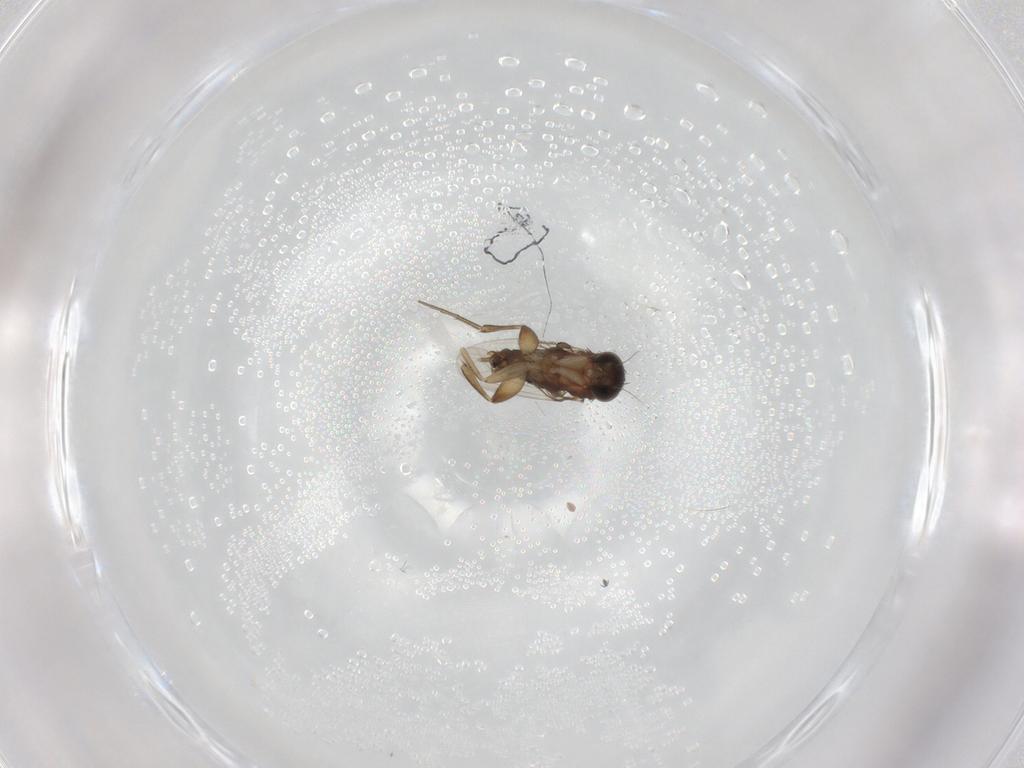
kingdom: Animalia
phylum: Arthropoda
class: Insecta
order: Diptera
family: Phoridae
